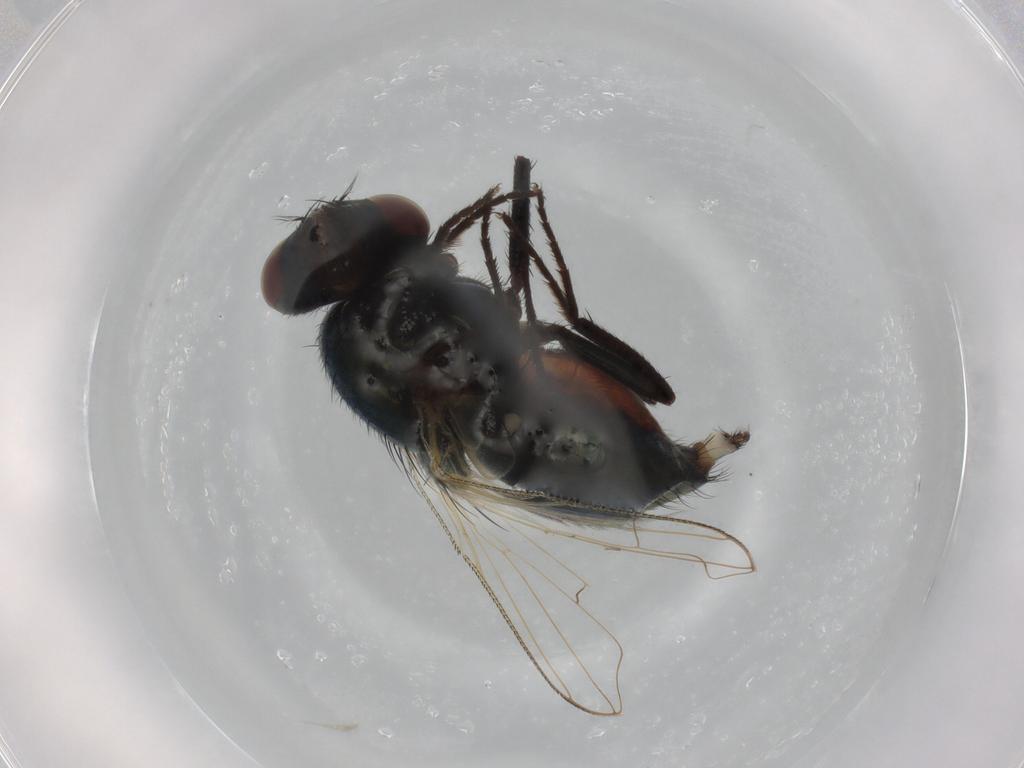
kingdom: Animalia
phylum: Arthropoda
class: Insecta
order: Diptera
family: Muscidae
